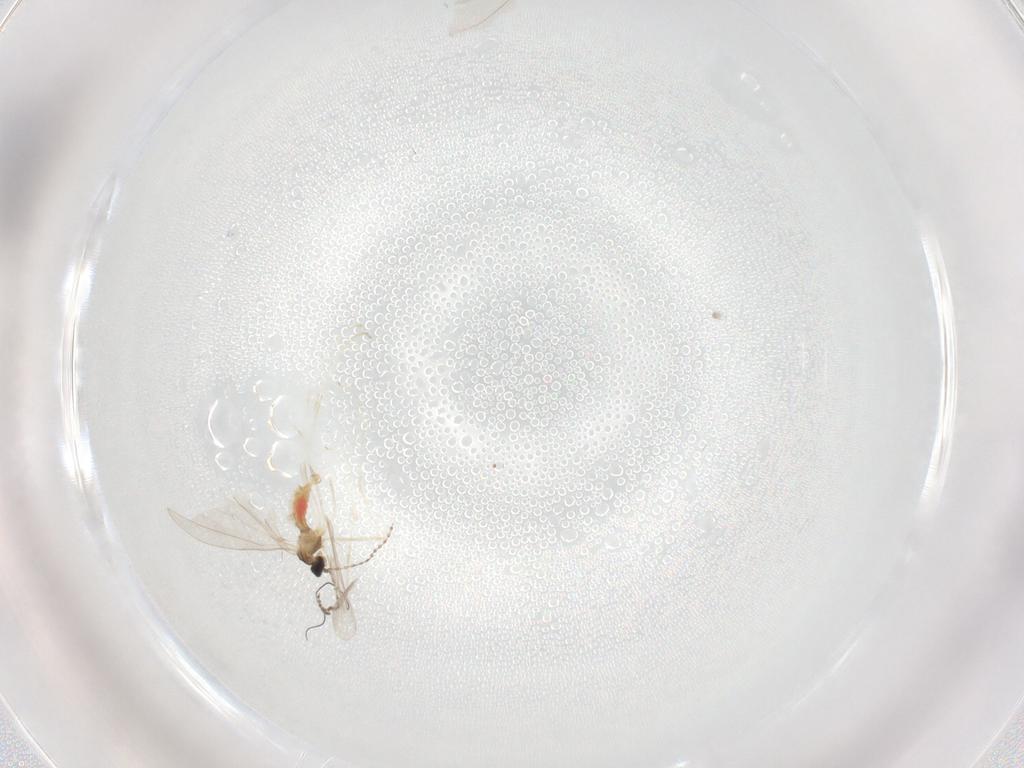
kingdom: Animalia
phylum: Arthropoda
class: Insecta
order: Diptera
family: Cecidomyiidae
